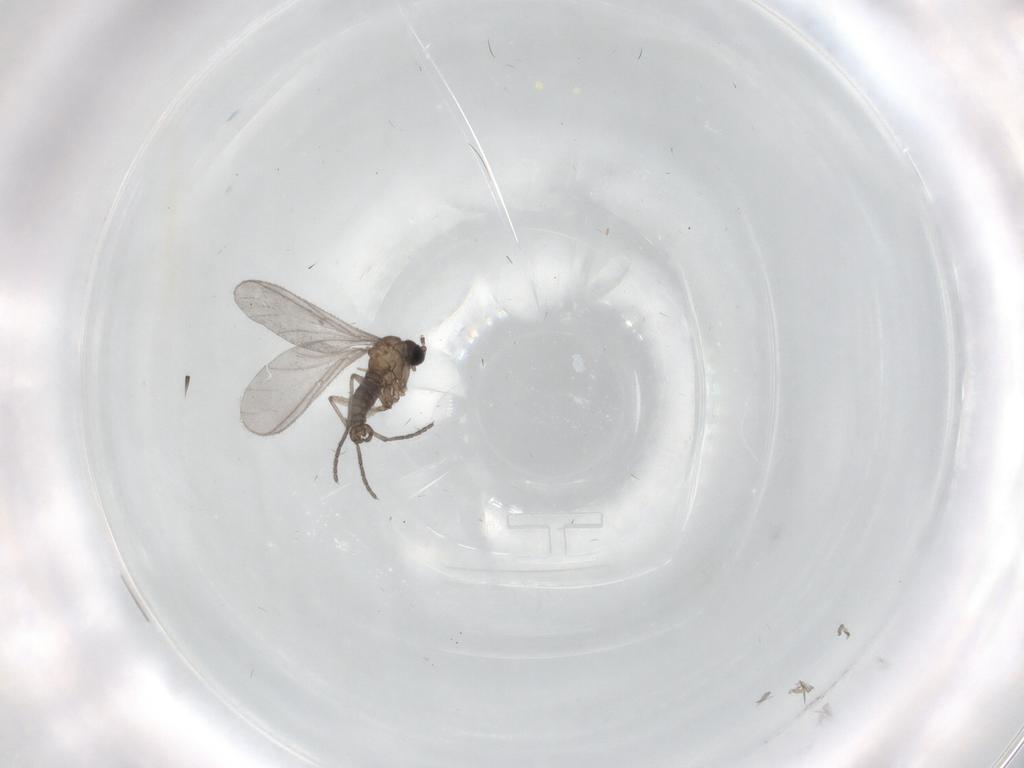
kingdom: Animalia
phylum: Arthropoda
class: Insecta
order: Diptera
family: Sciaridae
